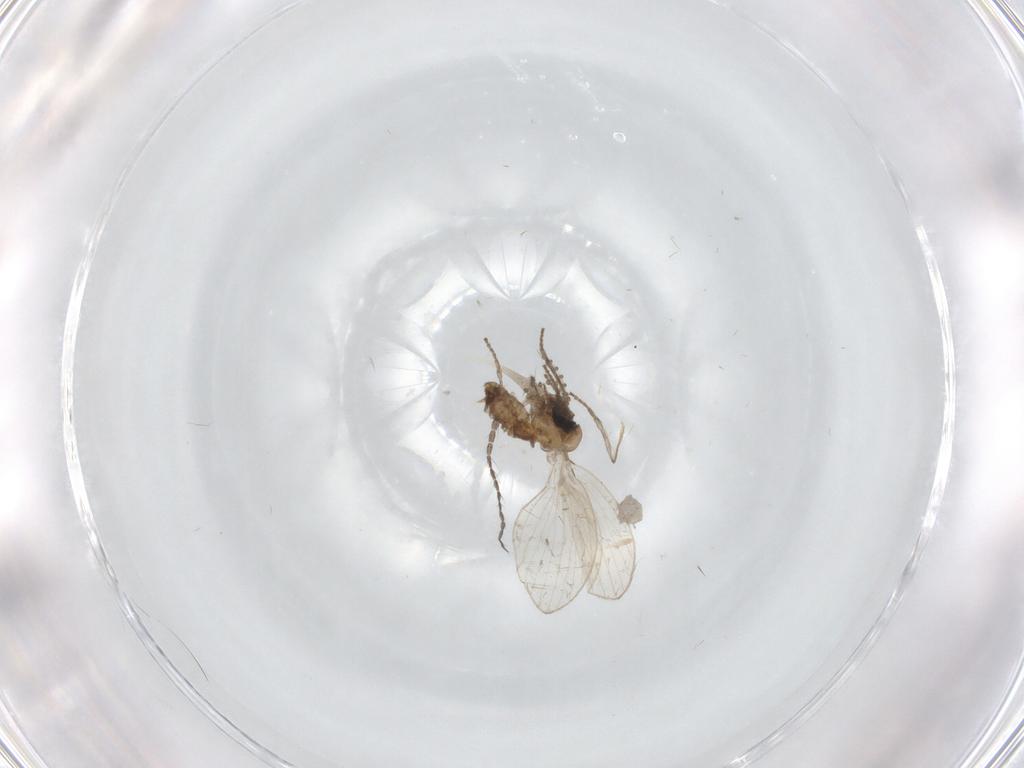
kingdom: Animalia
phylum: Arthropoda
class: Insecta
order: Diptera
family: Psychodidae
